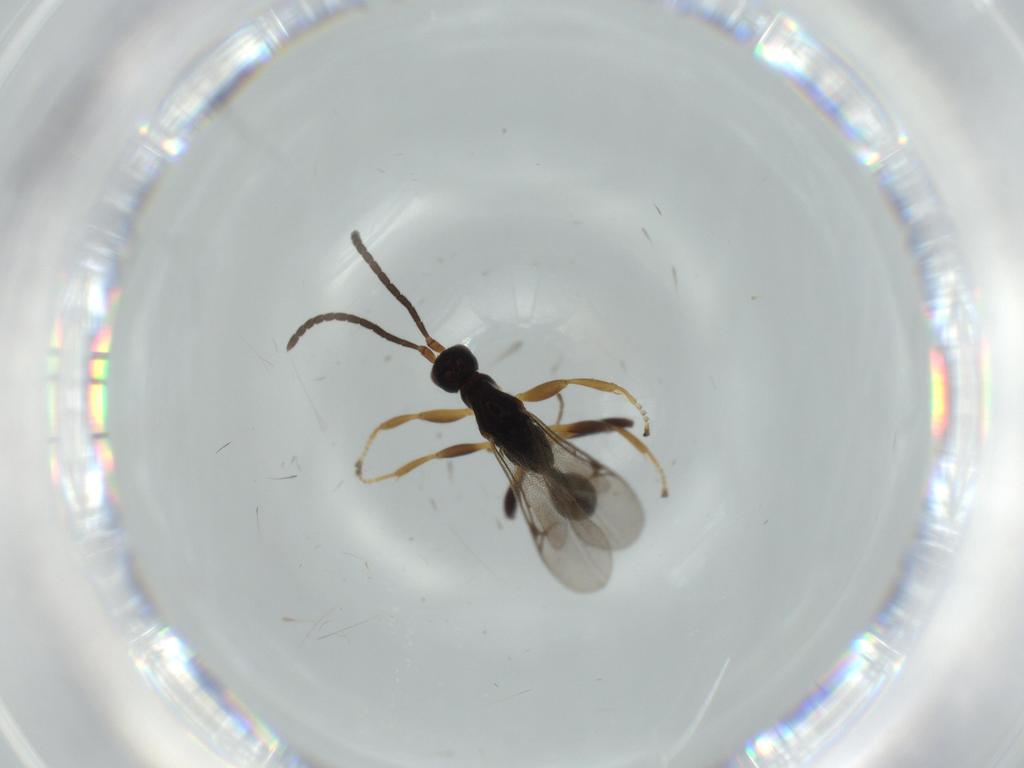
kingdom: Animalia
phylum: Arthropoda
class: Insecta
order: Hymenoptera
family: Proctotrupidae
